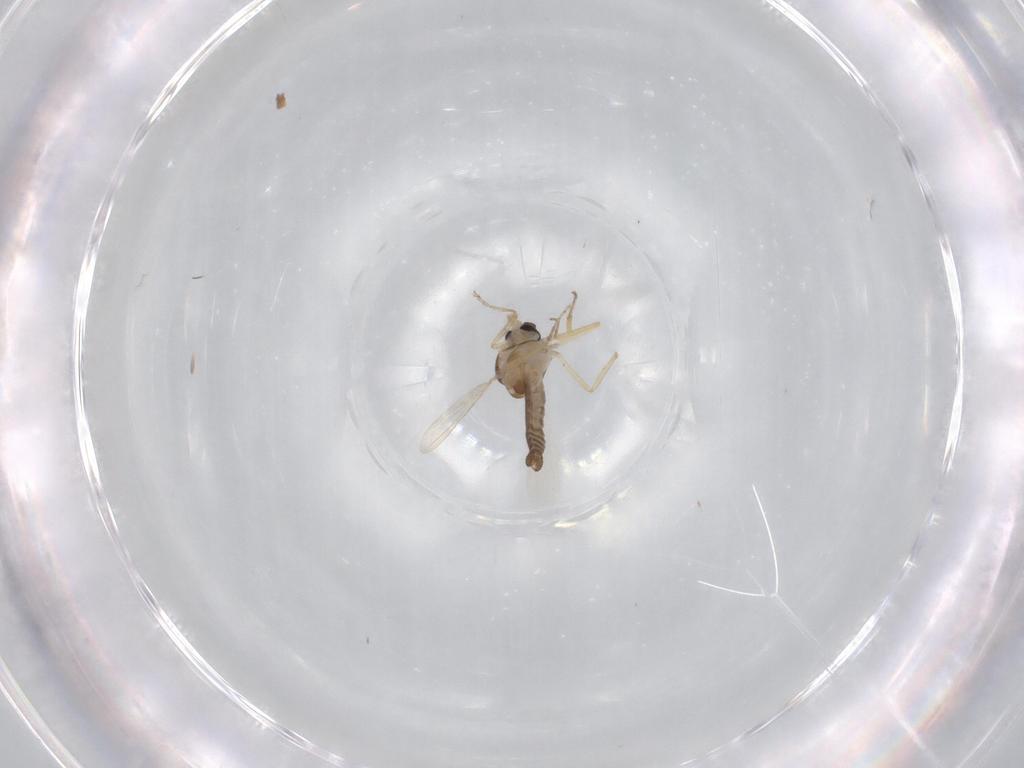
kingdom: Animalia
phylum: Arthropoda
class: Insecta
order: Diptera
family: Ceratopogonidae
